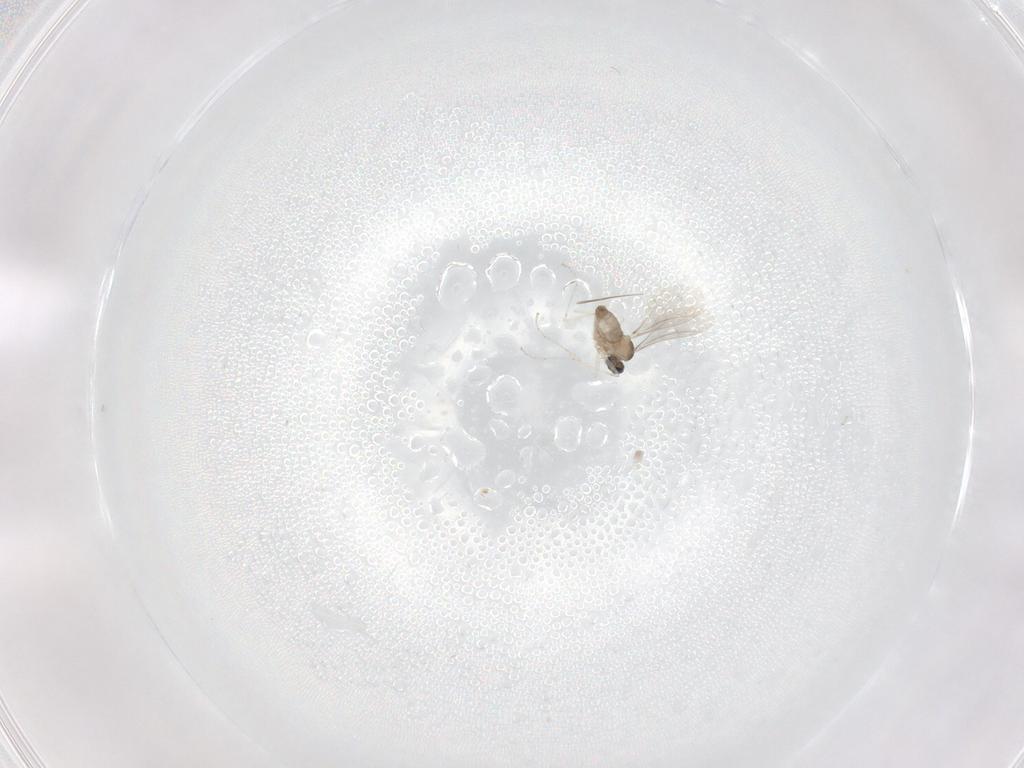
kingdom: Animalia
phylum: Arthropoda
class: Insecta
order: Diptera
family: Cecidomyiidae
